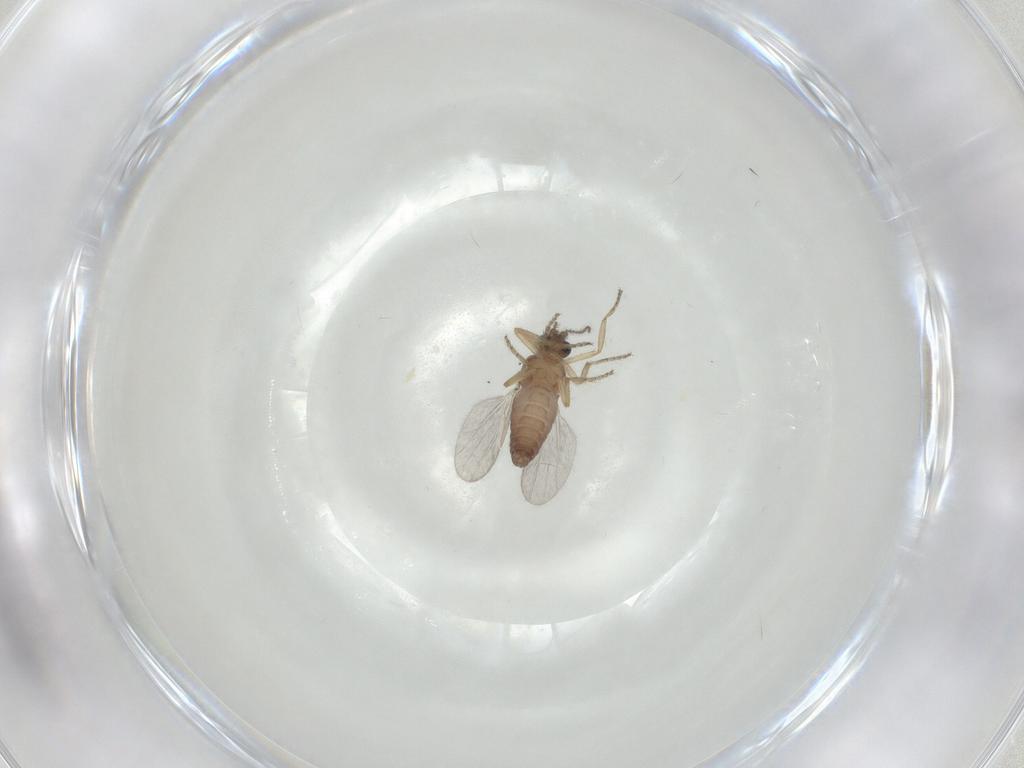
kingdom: Animalia
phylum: Arthropoda
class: Insecta
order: Diptera
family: Ceratopogonidae
